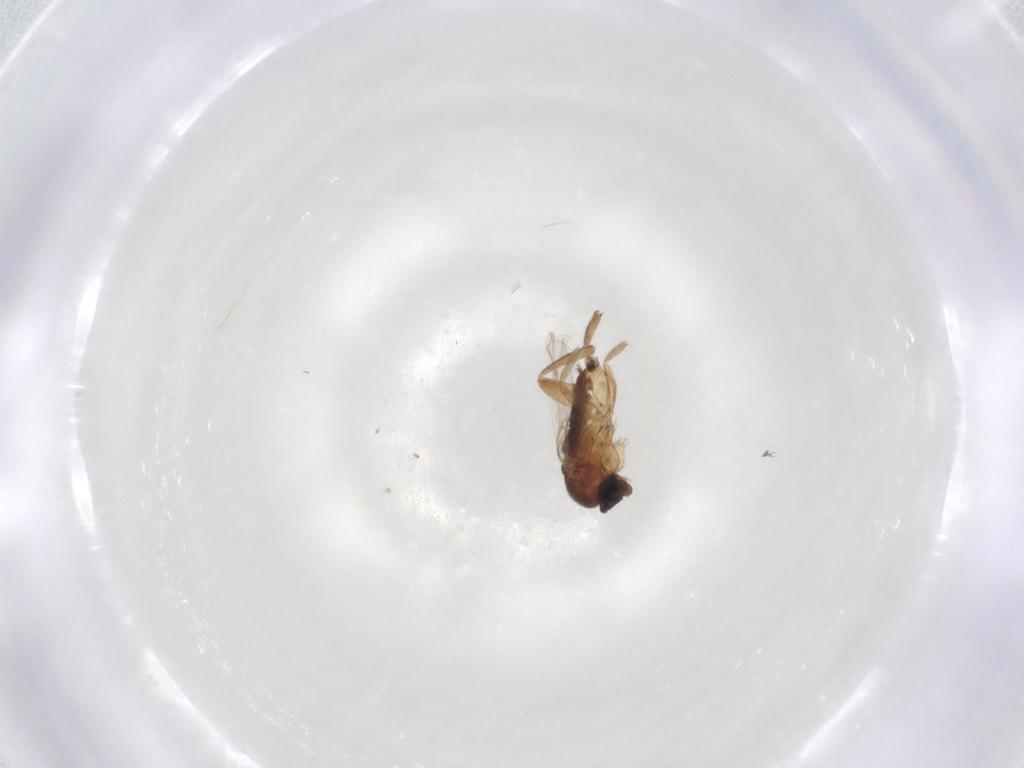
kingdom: Animalia
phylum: Arthropoda
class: Insecta
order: Diptera
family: Phoridae
